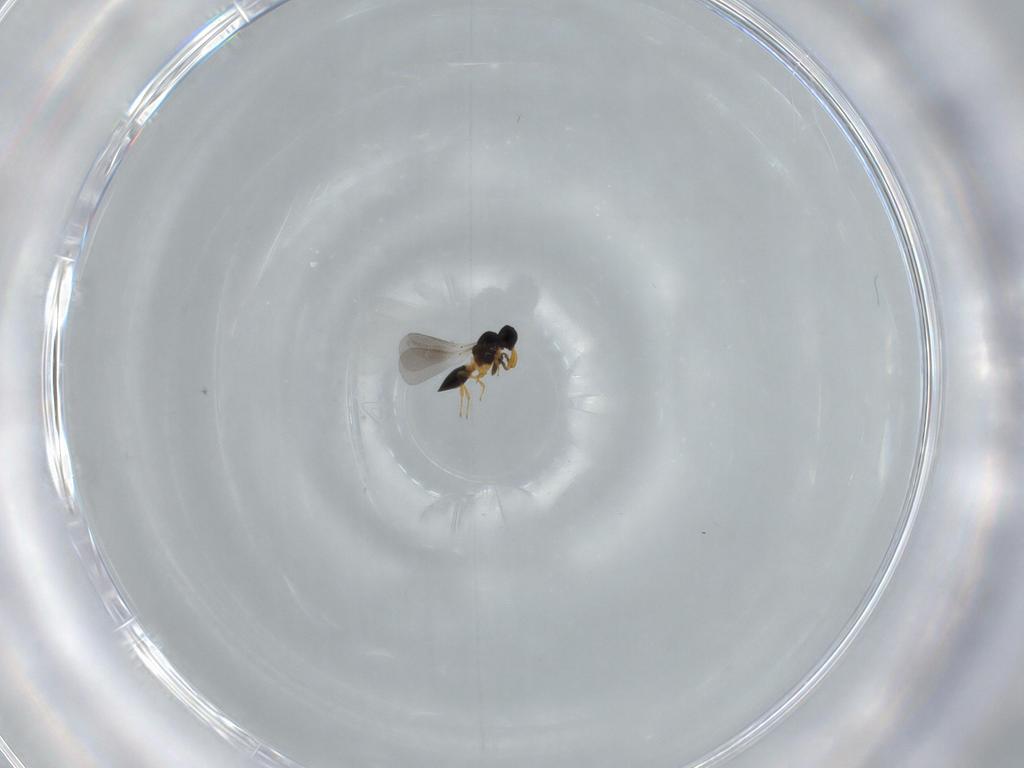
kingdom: Animalia
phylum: Arthropoda
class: Insecta
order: Hymenoptera
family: Platygastridae
